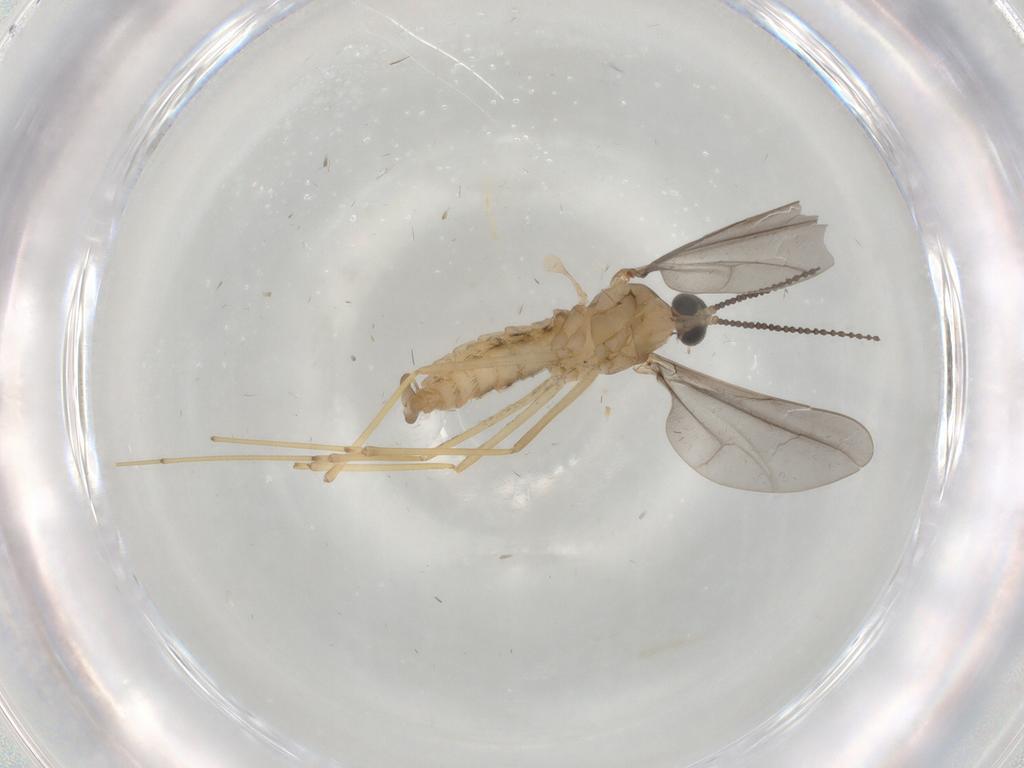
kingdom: Animalia
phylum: Arthropoda
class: Insecta
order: Diptera
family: Cecidomyiidae
